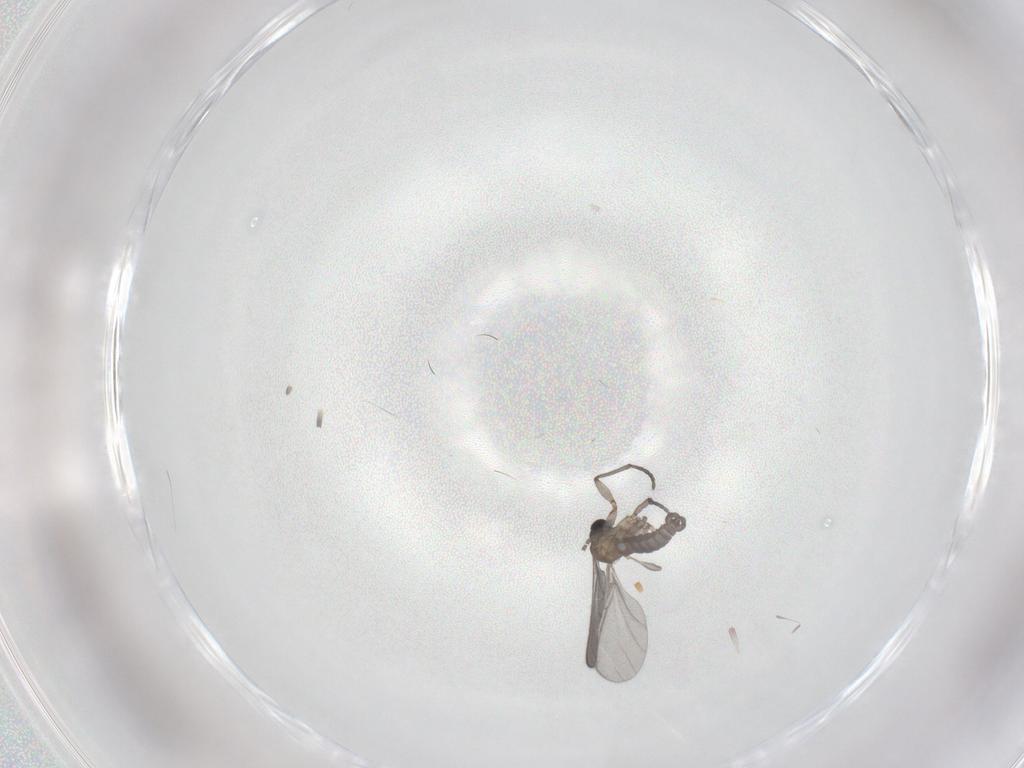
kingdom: Animalia
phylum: Arthropoda
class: Insecta
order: Diptera
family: Sciaridae
